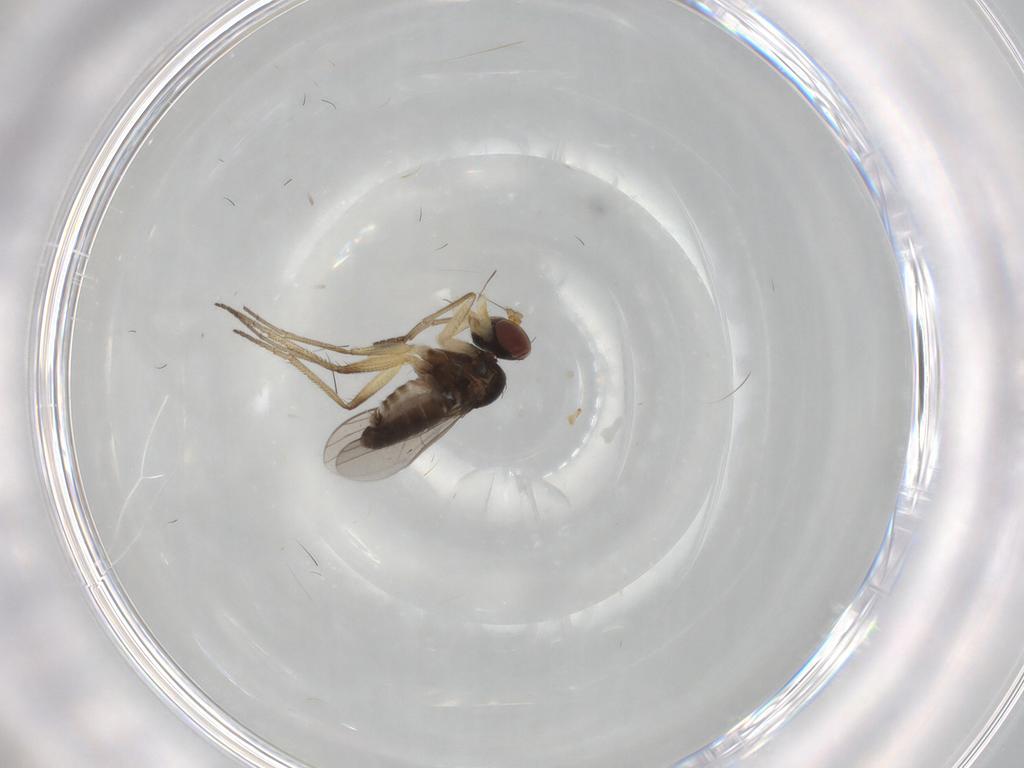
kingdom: Animalia
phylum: Arthropoda
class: Insecta
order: Diptera
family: Dolichopodidae
